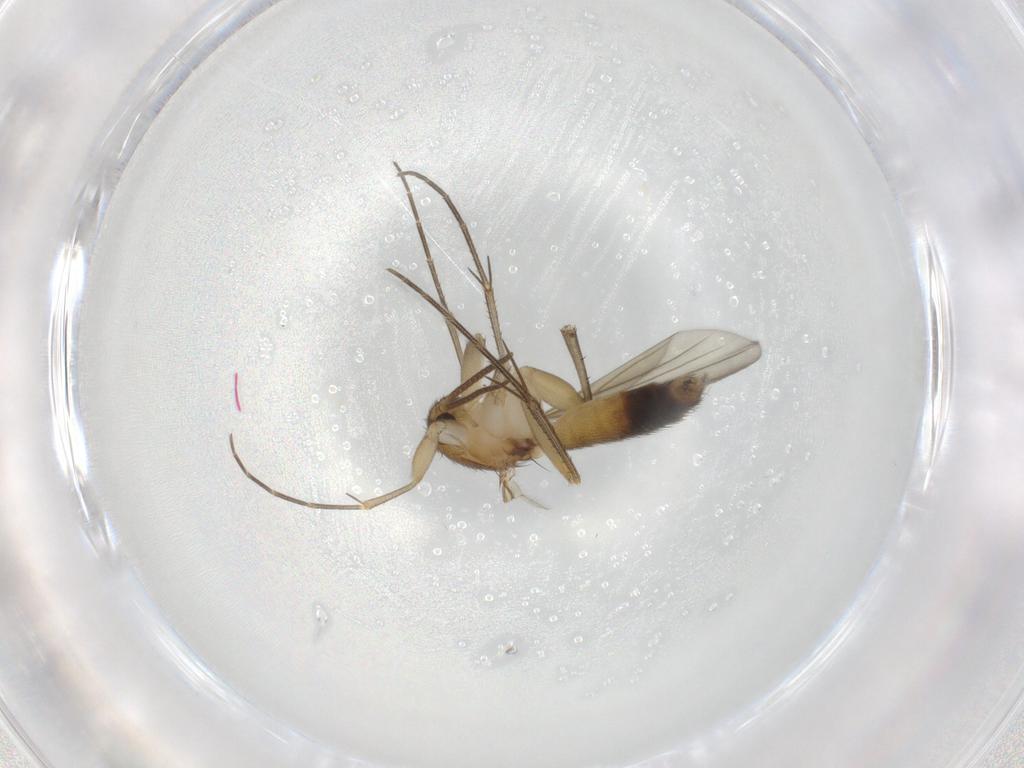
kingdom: Animalia
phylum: Arthropoda
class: Insecta
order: Diptera
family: Mycetophilidae
